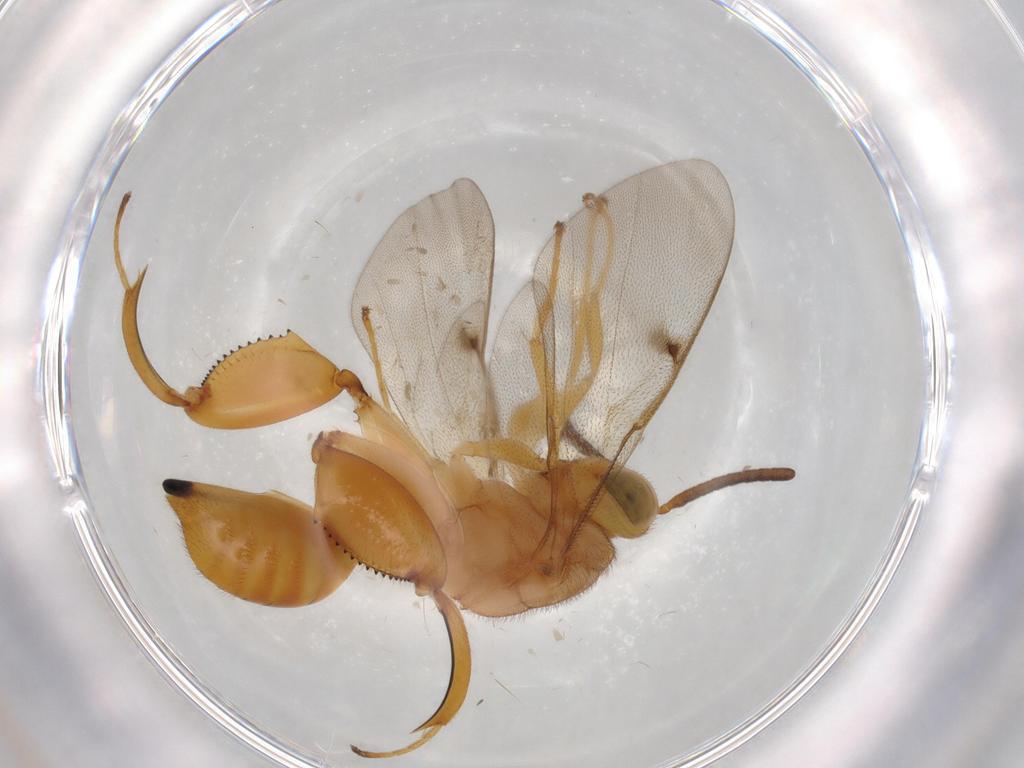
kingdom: Animalia
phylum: Arthropoda
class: Insecta
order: Hymenoptera
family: Chalcididae
